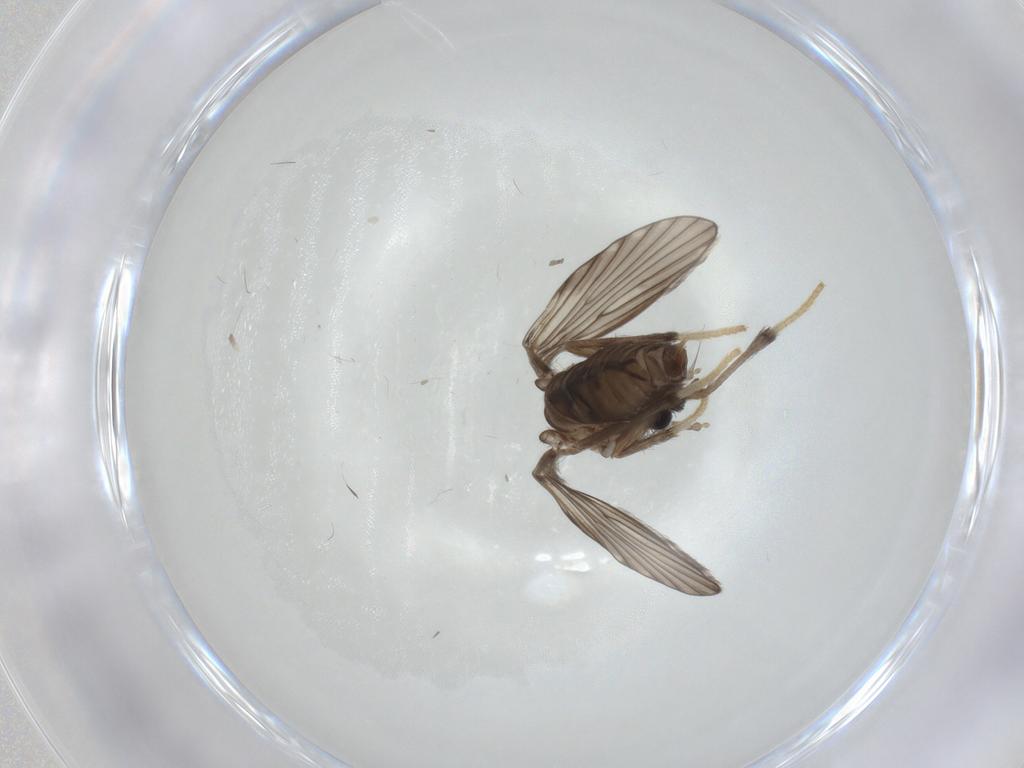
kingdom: Animalia
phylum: Arthropoda
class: Insecta
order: Diptera
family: Psychodidae
